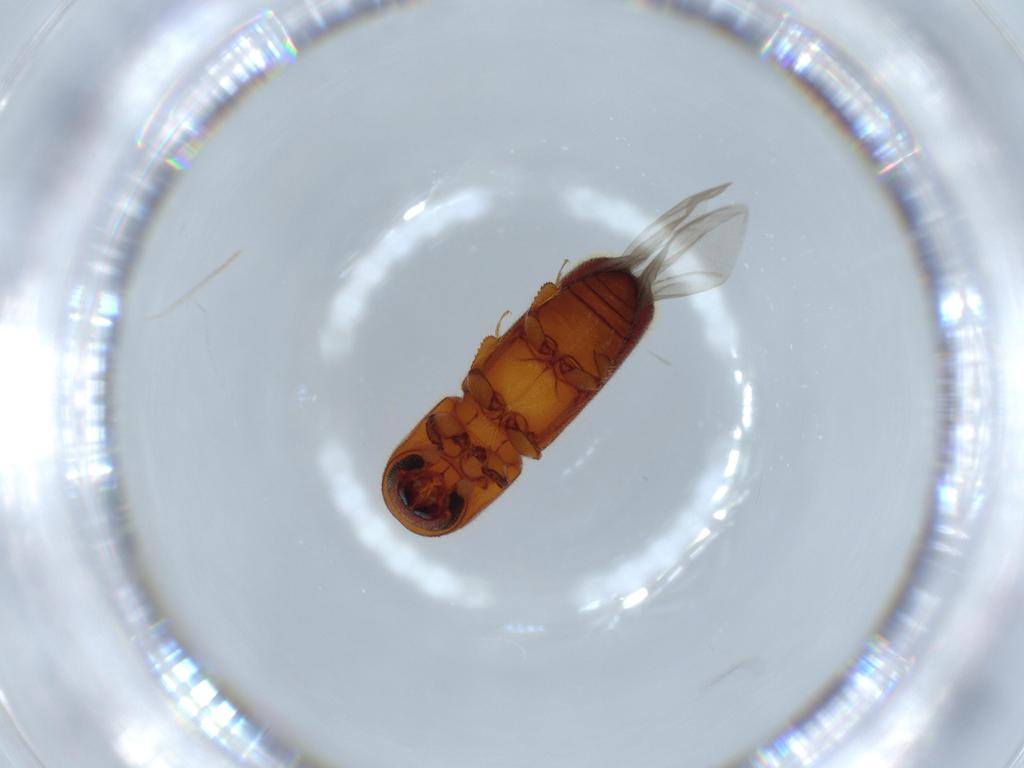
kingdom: Animalia
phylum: Arthropoda
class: Insecta
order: Coleoptera
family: Curculionidae
